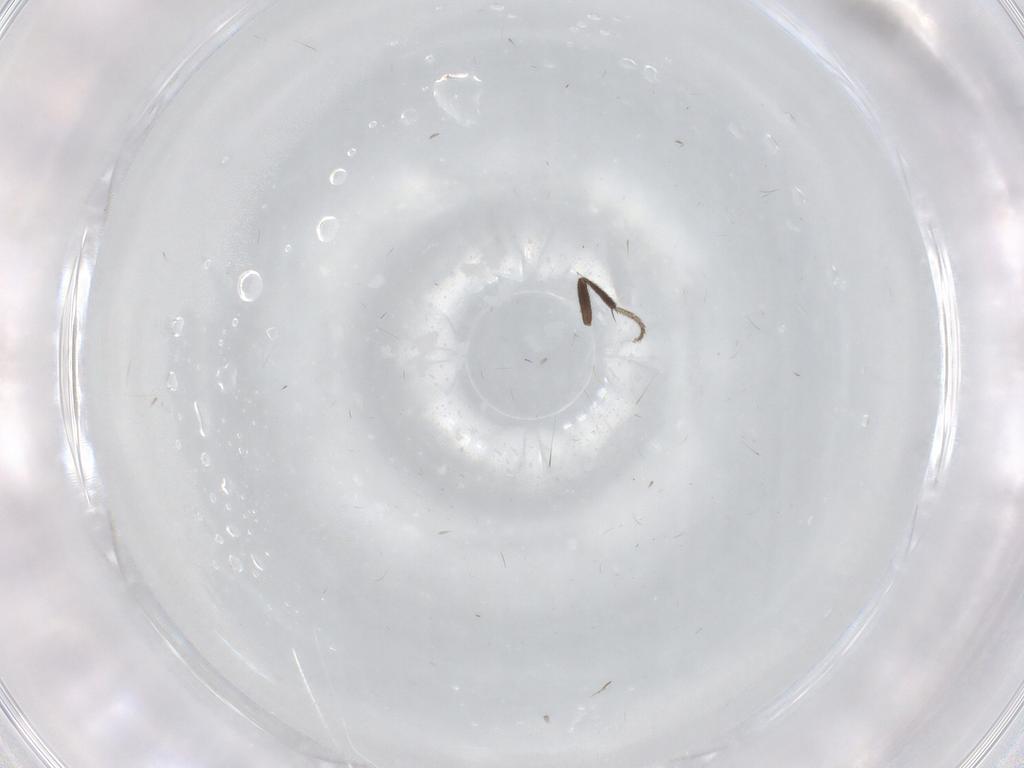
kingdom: Animalia
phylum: Arthropoda
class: Insecta
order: Diptera
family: Milichiidae
